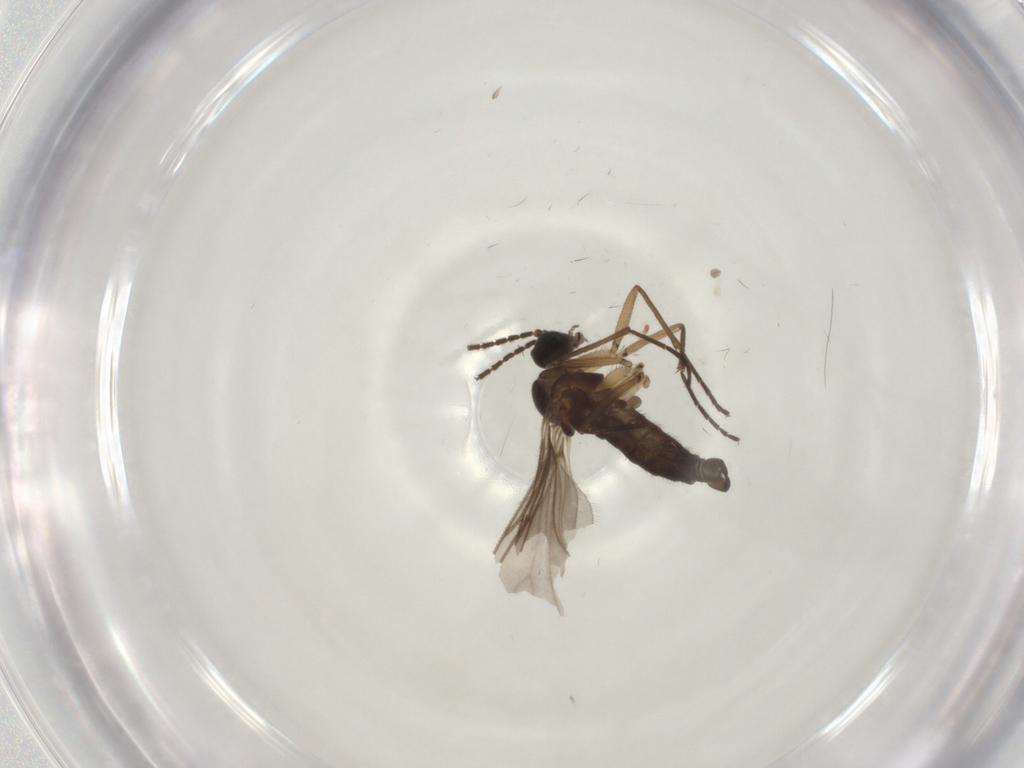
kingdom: Animalia
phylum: Arthropoda
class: Insecta
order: Diptera
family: Sciaridae
